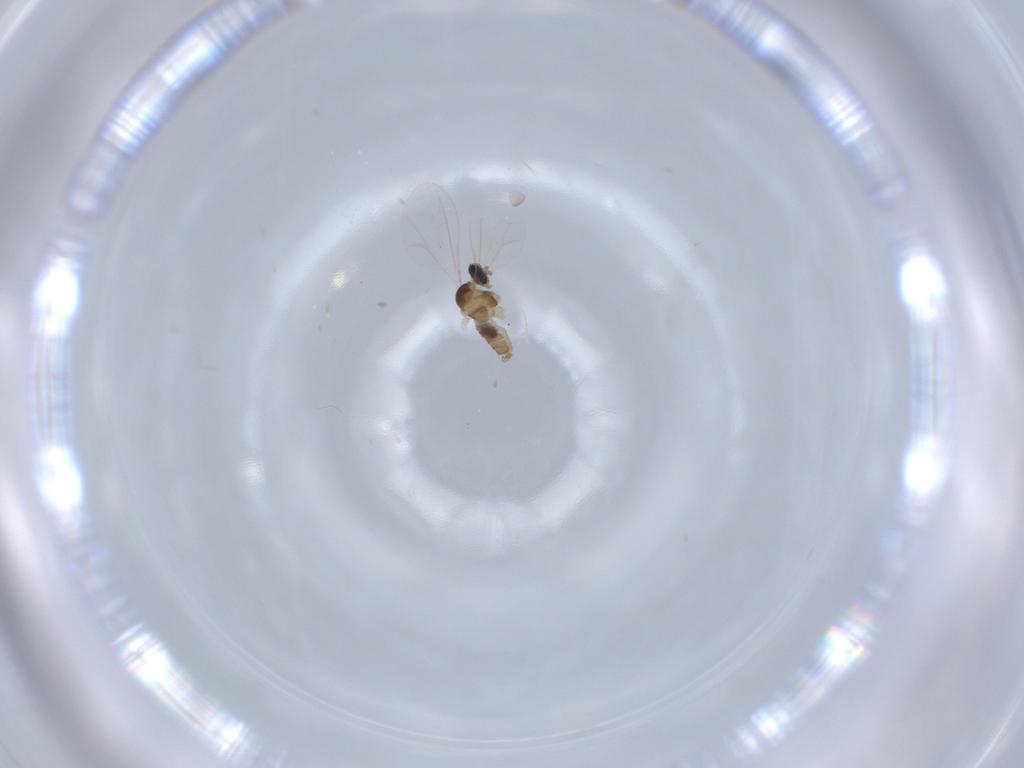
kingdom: Animalia
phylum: Arthropoda
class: Insecta
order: Diptera
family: Cecidomyiidae
